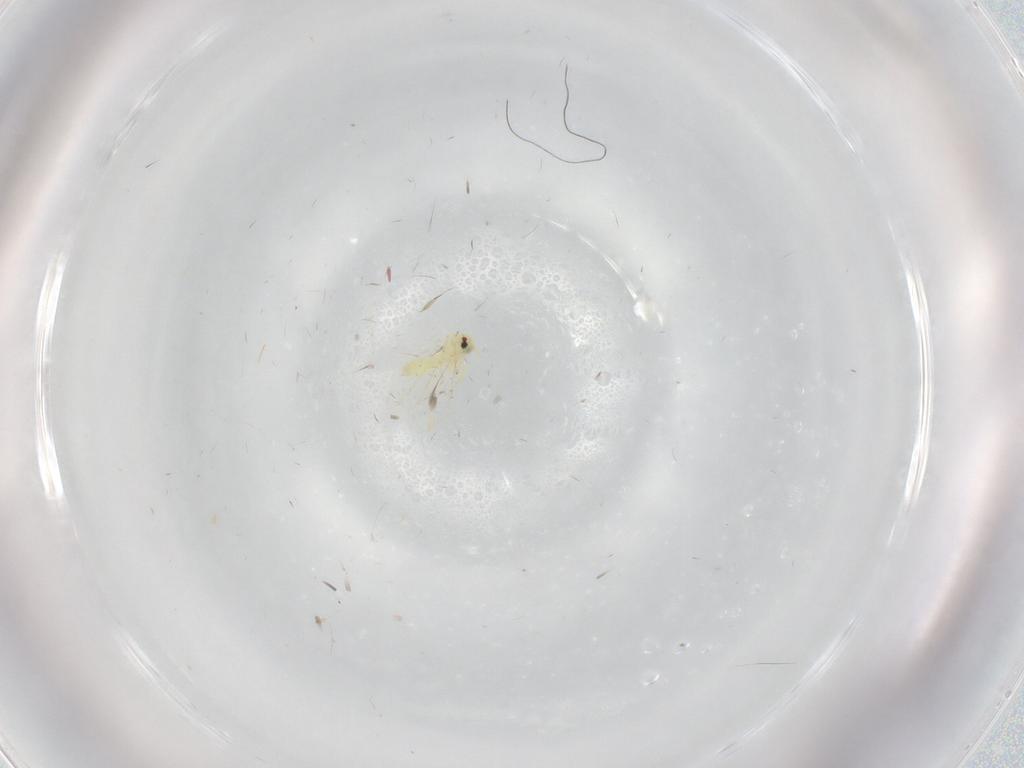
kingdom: Animalia
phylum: Arthropoda
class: Insecta
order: Hemiptera
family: Aleyrodidae
